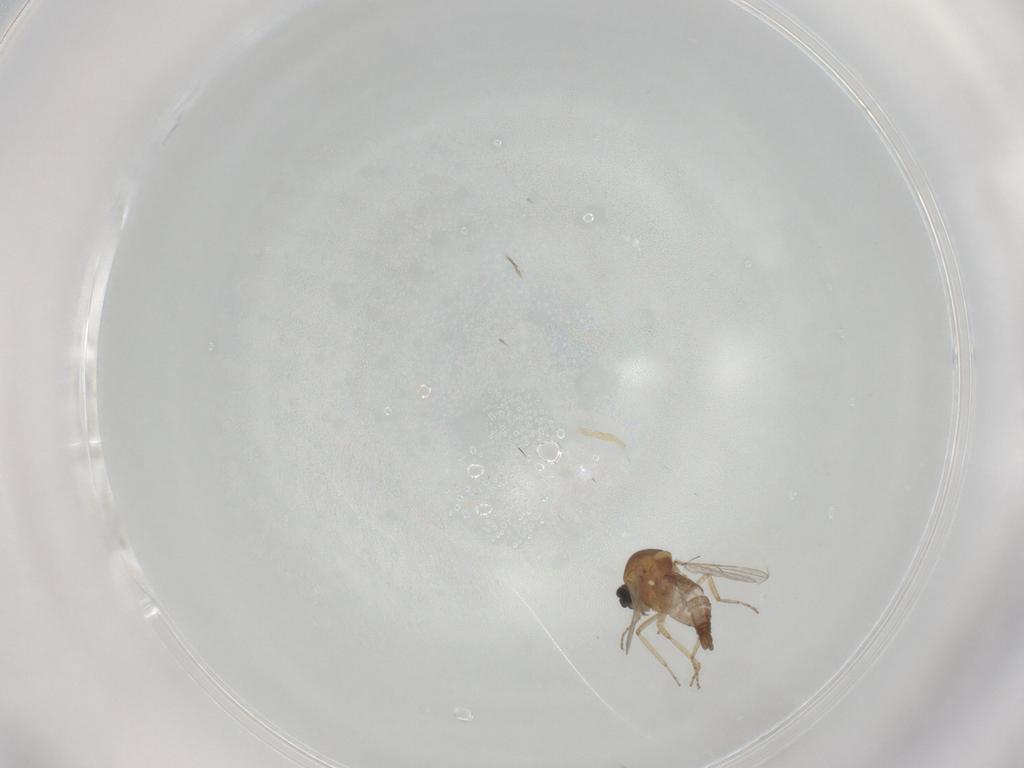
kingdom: Animalia
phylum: Arthropoda
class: Insecta
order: Diptera
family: Ceratopogonidae
